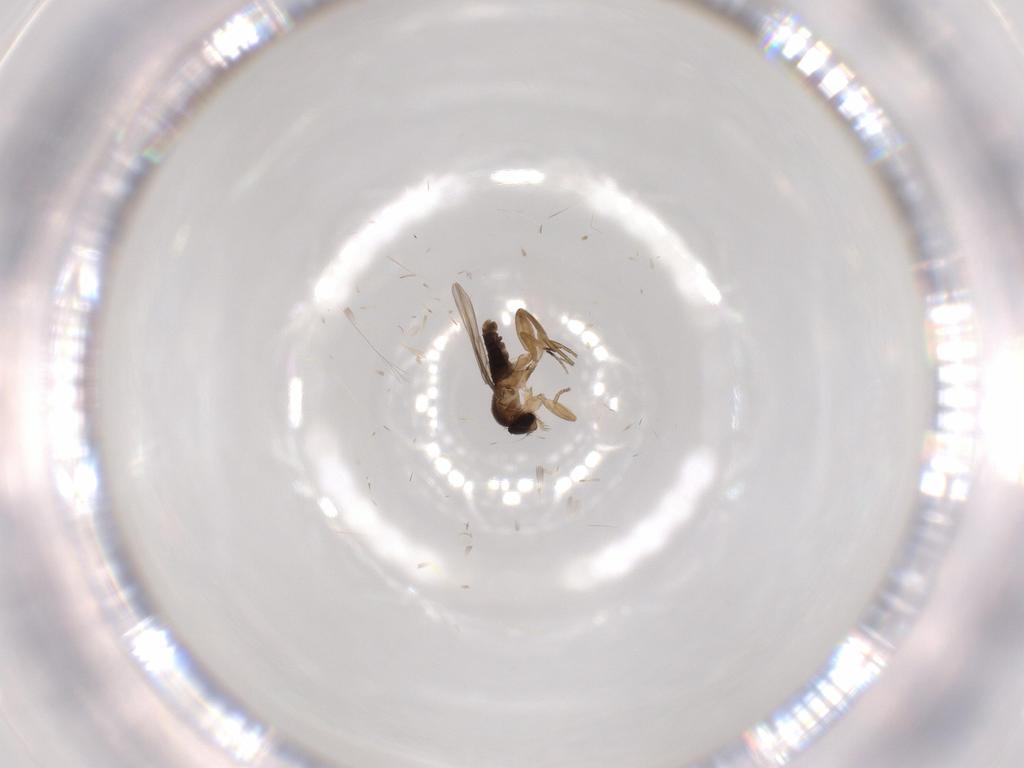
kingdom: Animalia
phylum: Arthropoda
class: Insecta
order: Diptera
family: Phoridae
